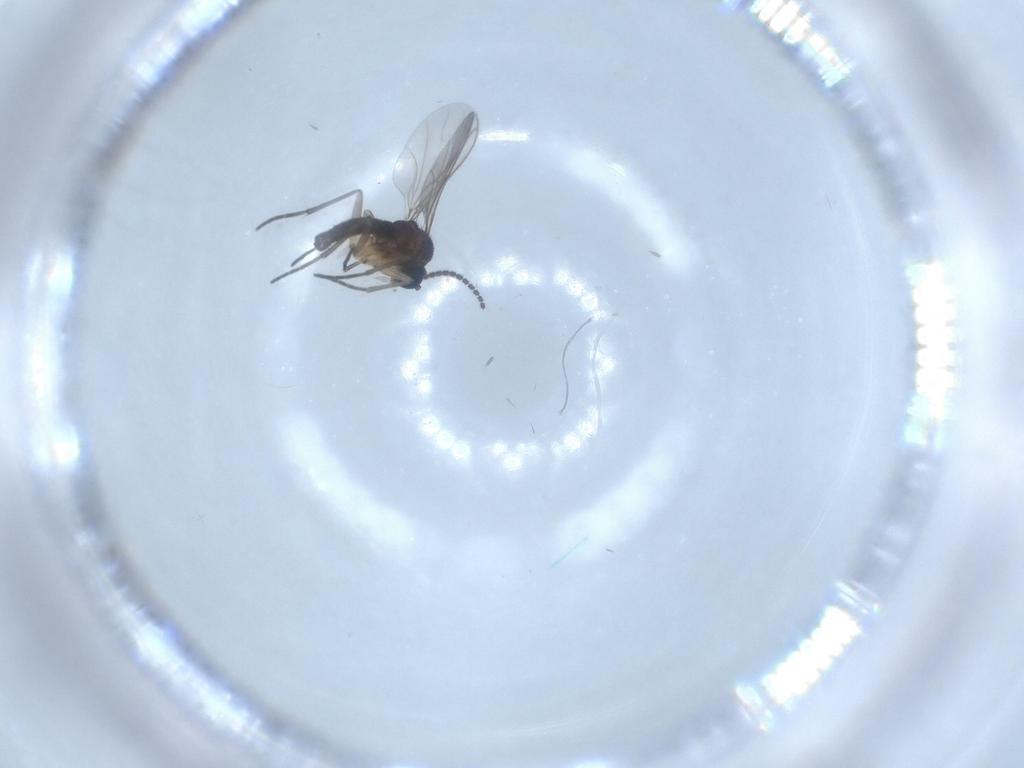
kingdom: Animalia
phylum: Arthropoda
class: Insecta
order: Diptera
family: Sciaridae
